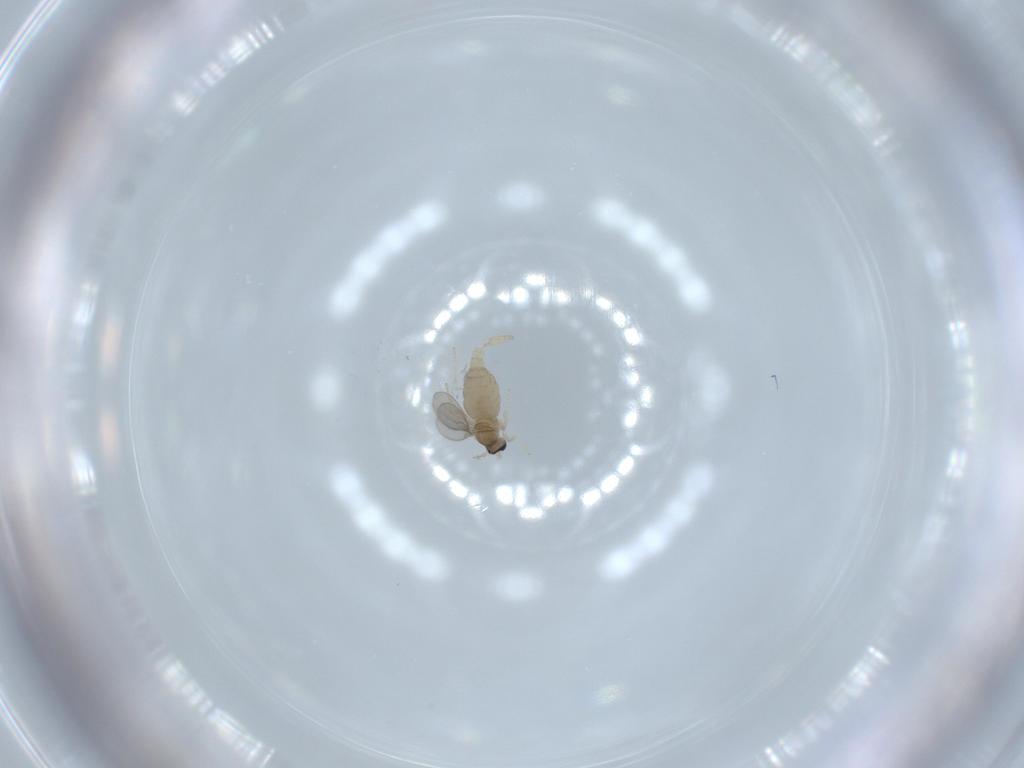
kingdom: Animalia
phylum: Arthropoda
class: Insecta
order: Diptera
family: Cecidomyiidae
